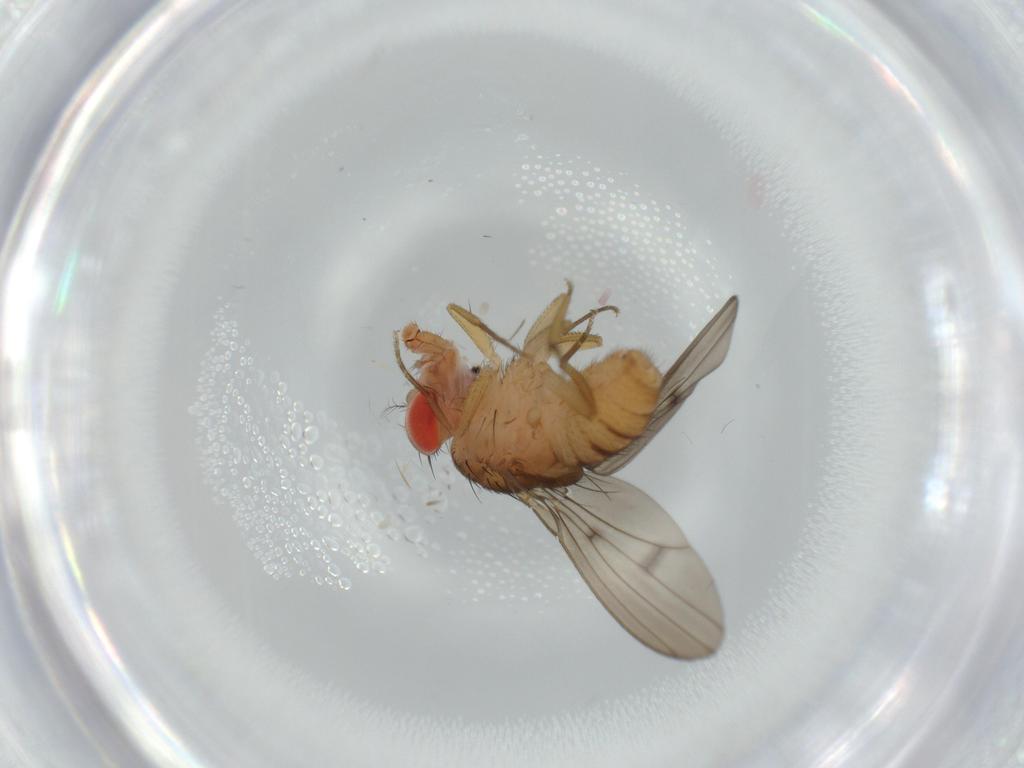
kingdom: Animalia
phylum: Arthropoda
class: Insecta
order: Diptera
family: Drosophilidae
